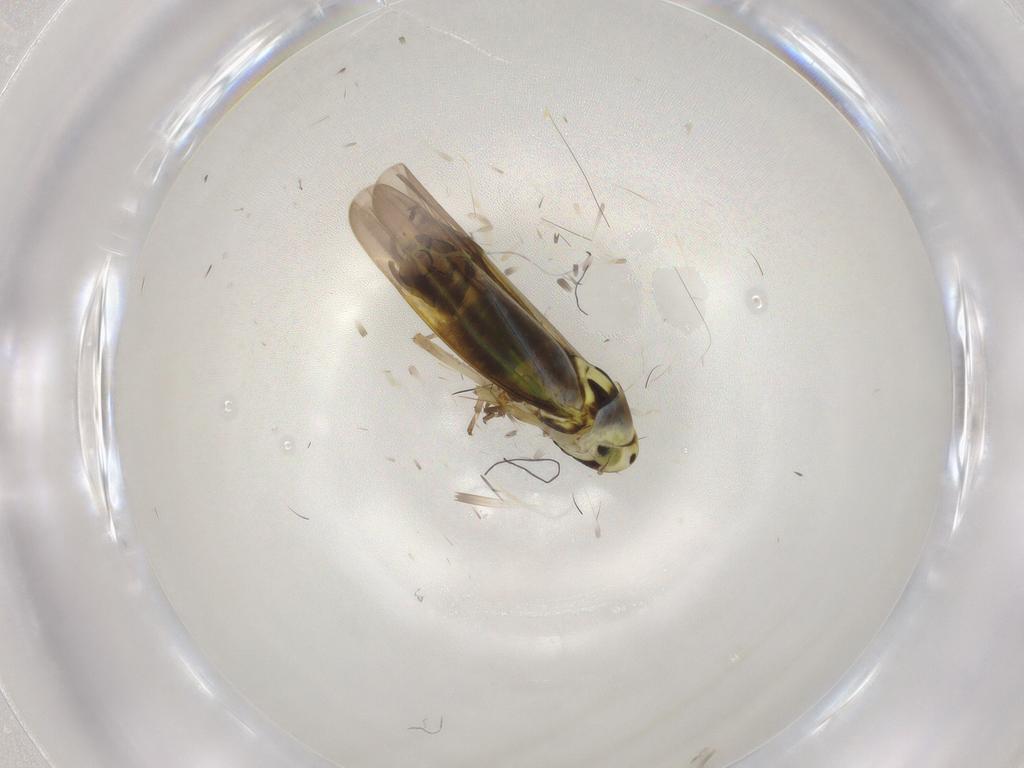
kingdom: Animalia
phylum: Arthropoda
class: Insecta
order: Hemiptera
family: Cicadellidae
